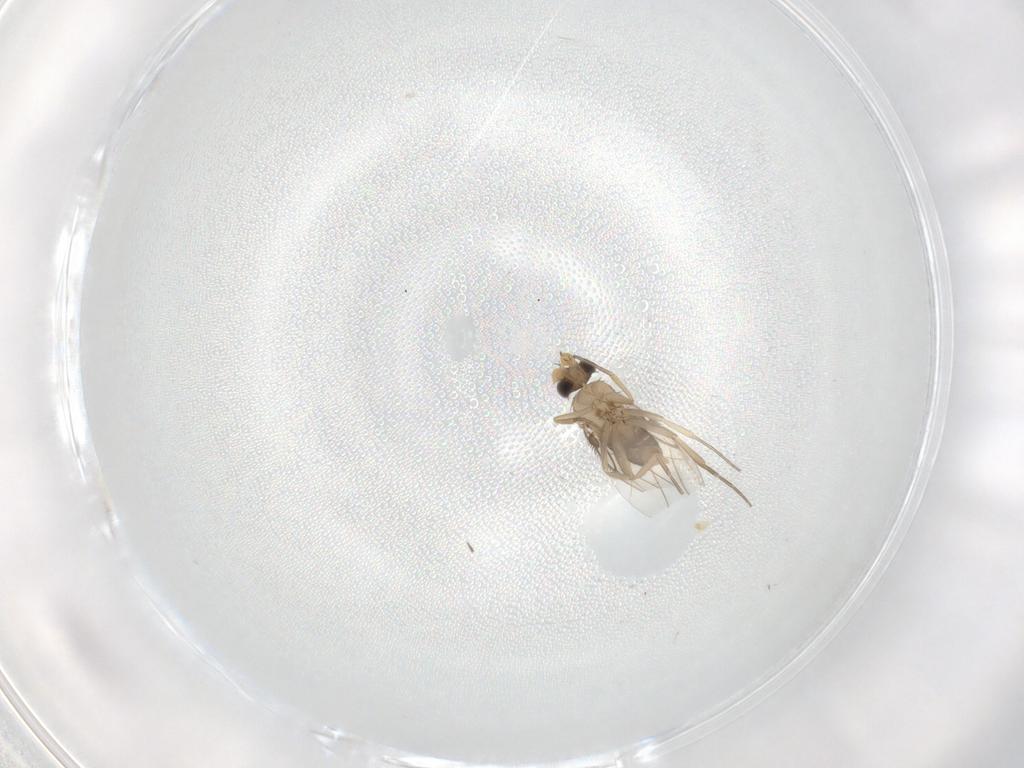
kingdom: Animalia
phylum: Arthropoda
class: Insecta
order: Diptera
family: Phoridae
